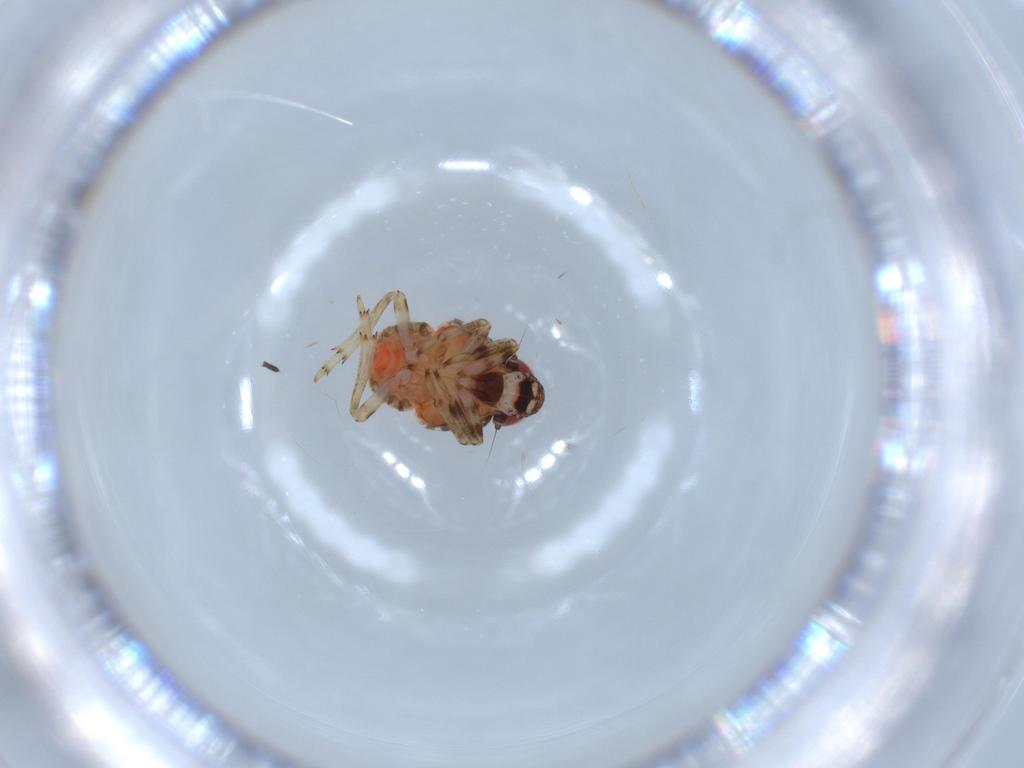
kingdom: Animalia
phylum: Arthropoda
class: Insecta
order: Hemiptera
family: Issidae
